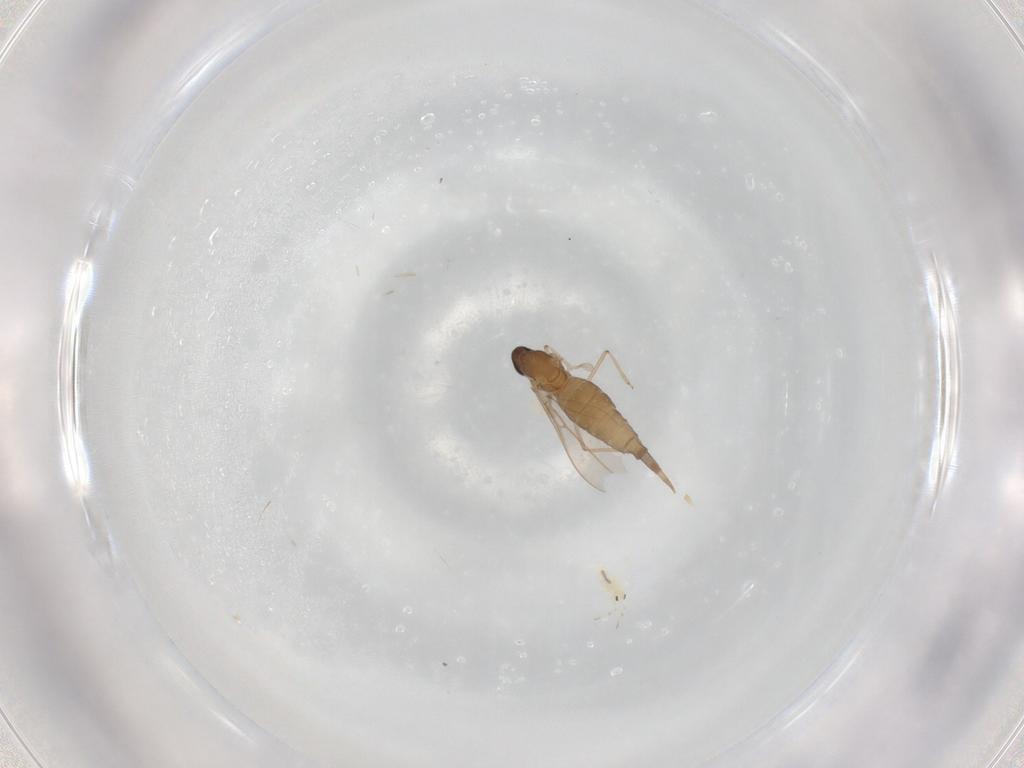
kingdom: Animalia
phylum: Arthropoda
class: Insecta
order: Diptera
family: Cecidomyiidae
